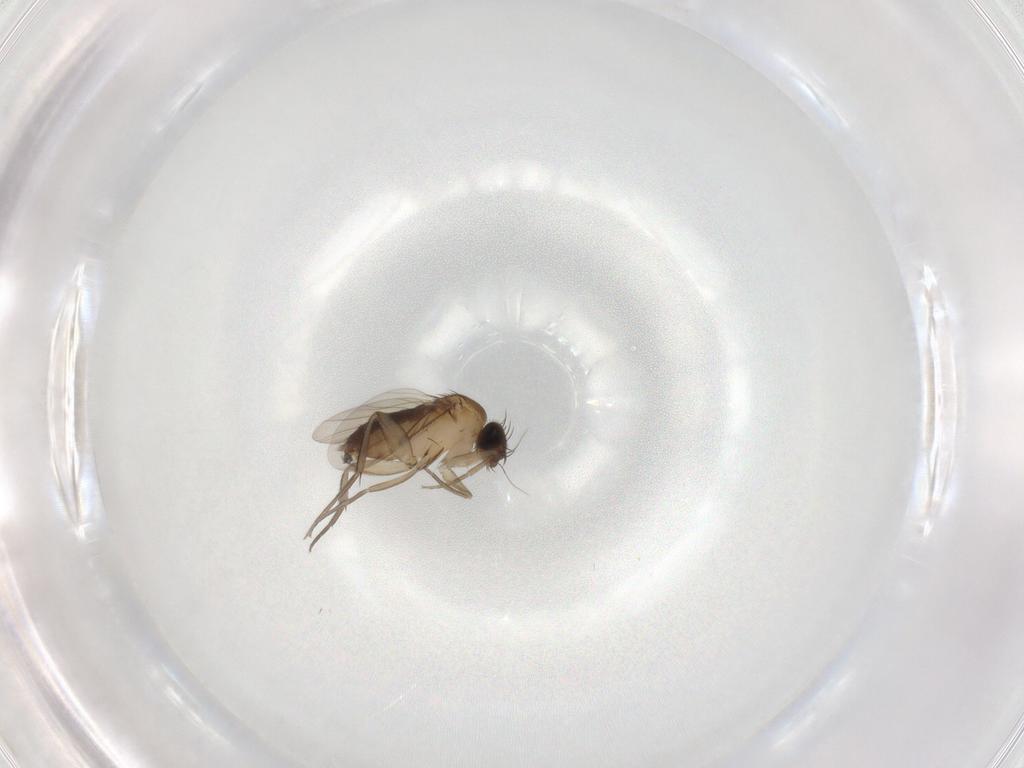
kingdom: Animalia
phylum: Arthropoda
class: Insecta
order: Diptera
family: Phoridae
